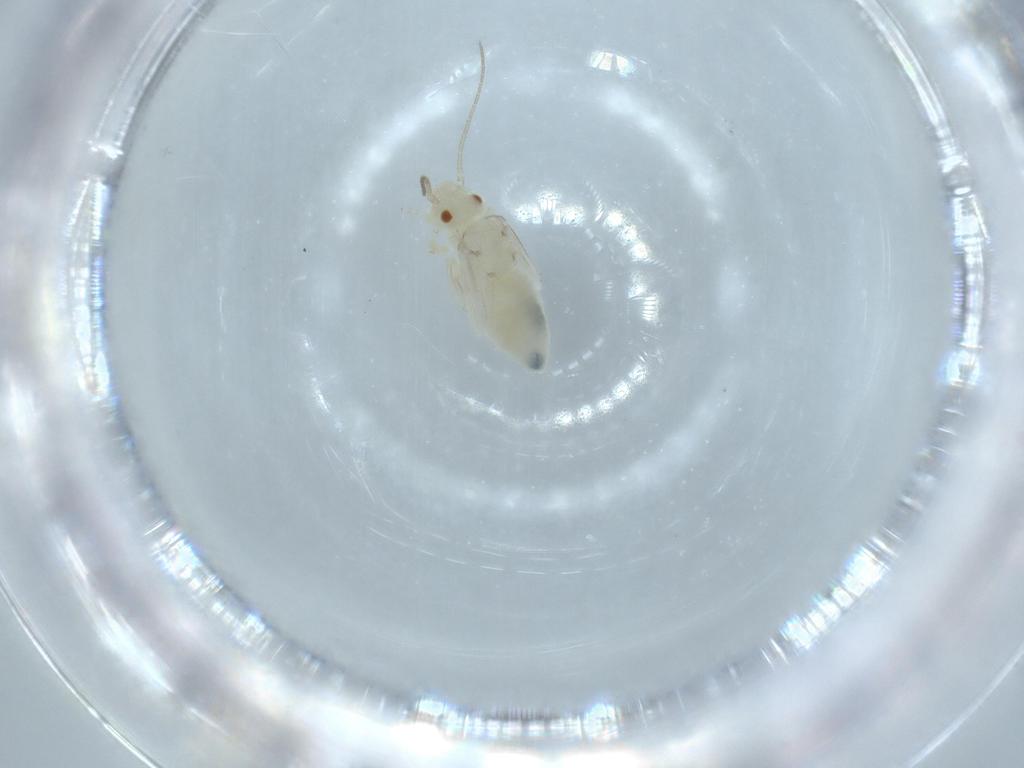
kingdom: Animalia
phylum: Arthropoda
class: Insecta
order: Psocodea
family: Caeciliusidae
